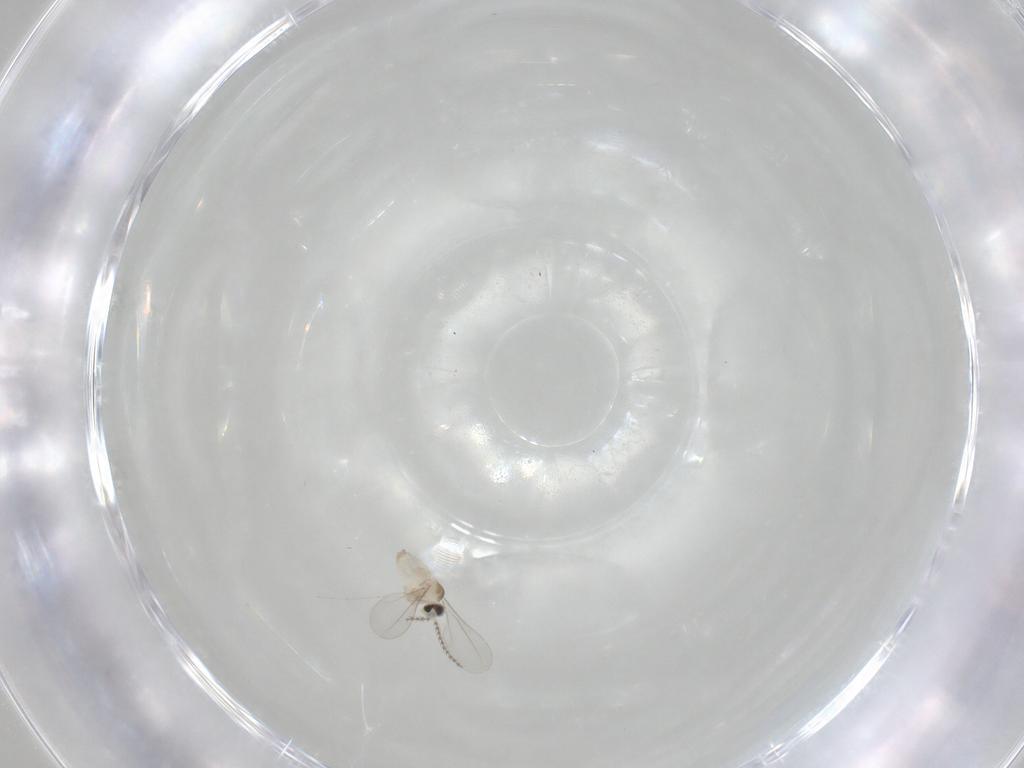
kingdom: Animalia
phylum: Arthropoda
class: Insecta
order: Diptera
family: Cecidomyiidae
